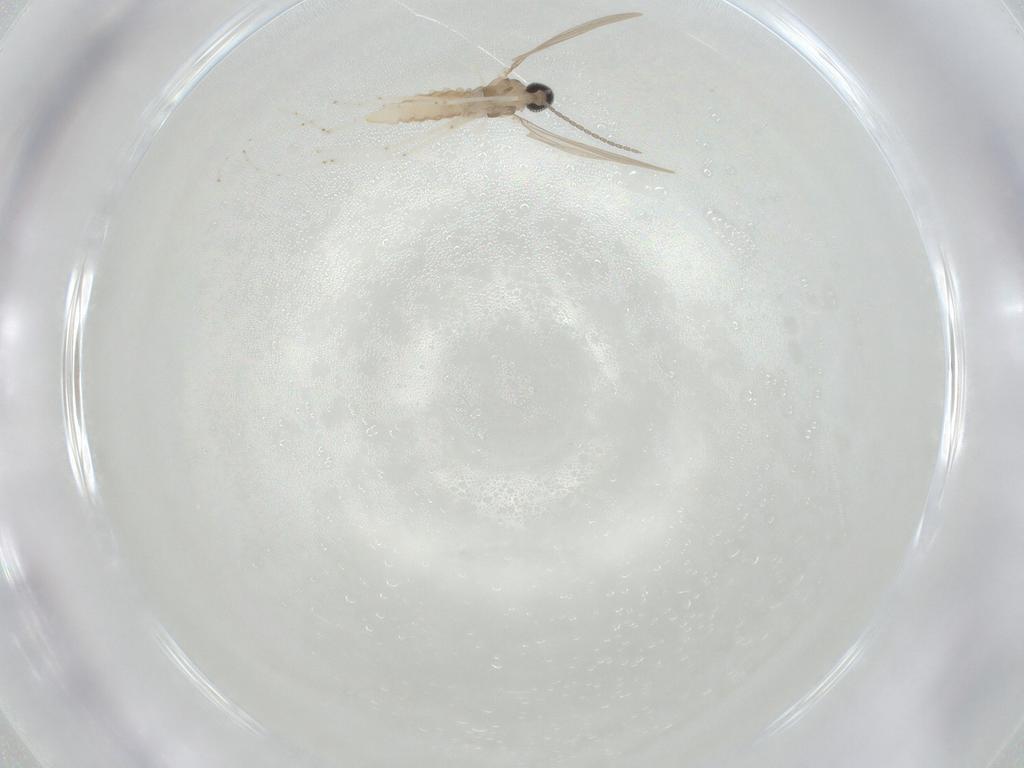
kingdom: Animalia
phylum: Arthropoda
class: Insecta
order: Diptera
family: Cecidomyiidae
